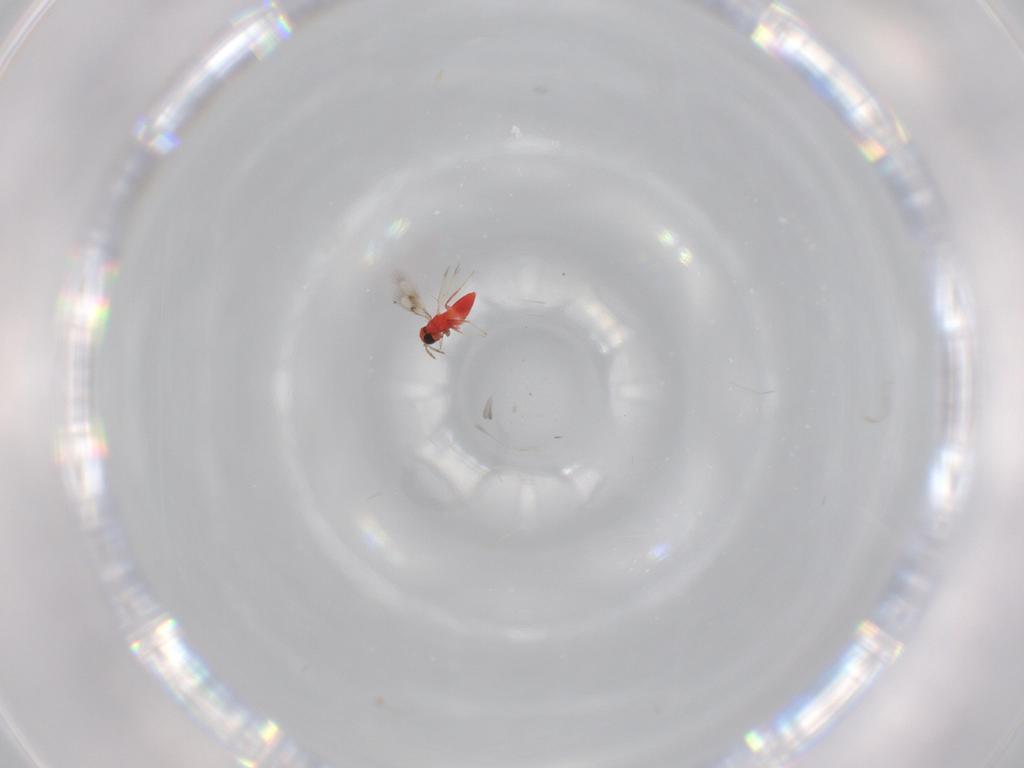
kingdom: Animalia
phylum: Arthropoda
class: Insecta
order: Hymenoptera
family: Trichogrammatidae
